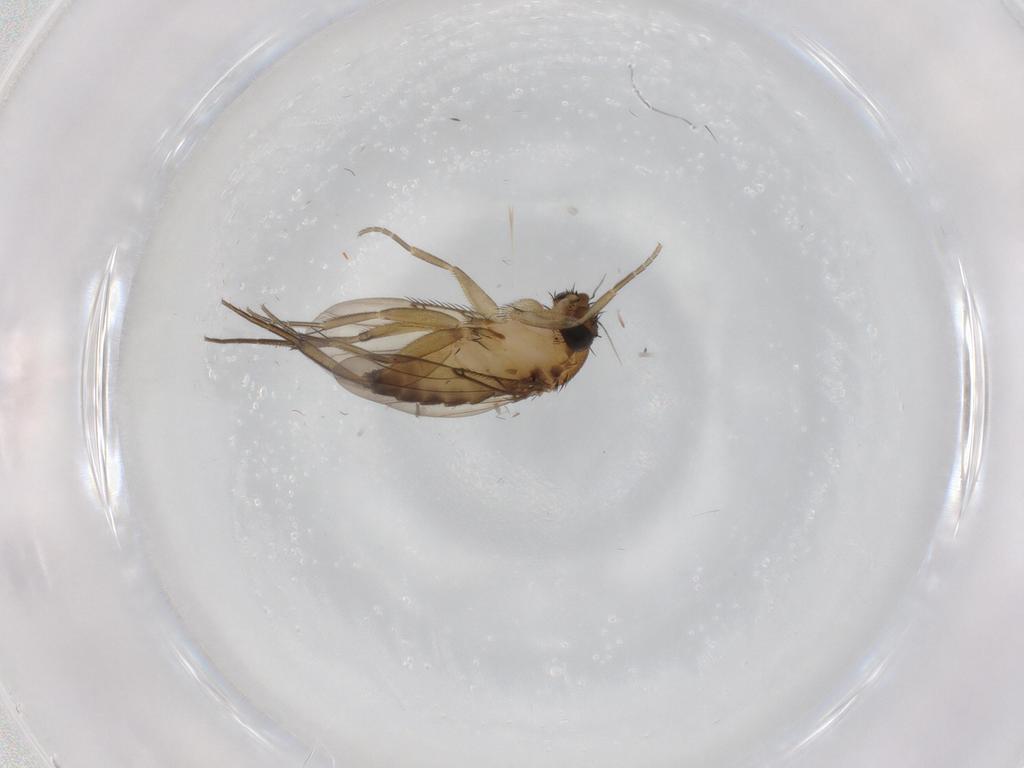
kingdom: Animalia
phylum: Arthropoda
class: Insecta
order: Diptera
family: Phoridae
